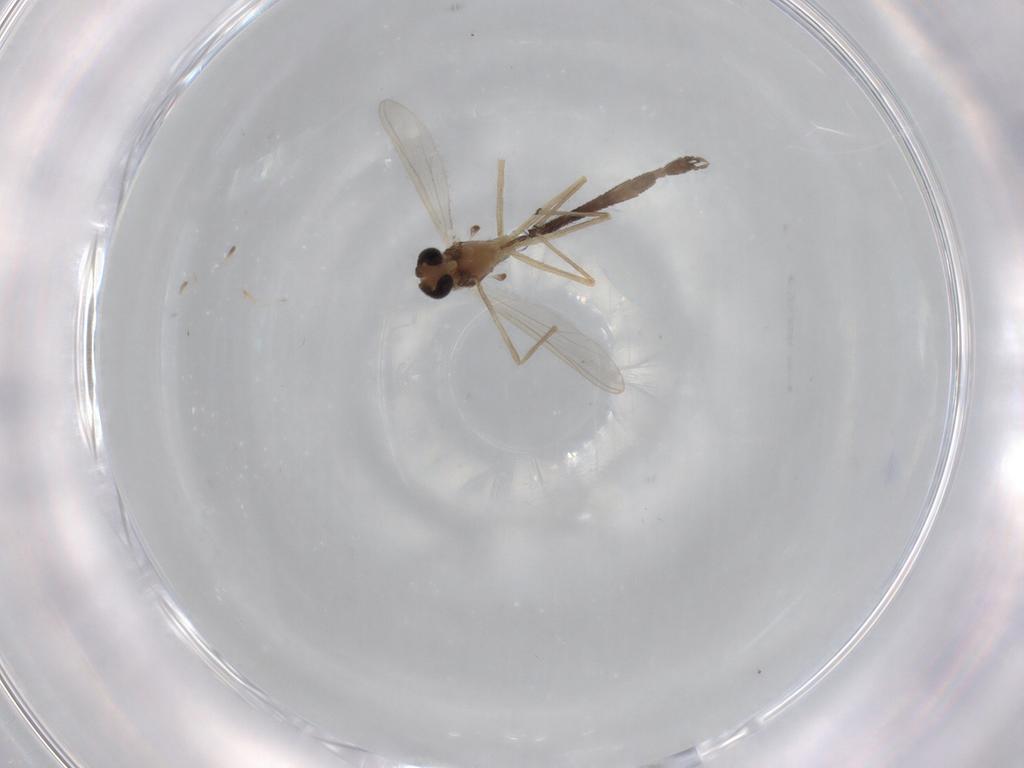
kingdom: Animalia
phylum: Arthropoda
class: Insecta
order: Diptera
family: Chironomidae
